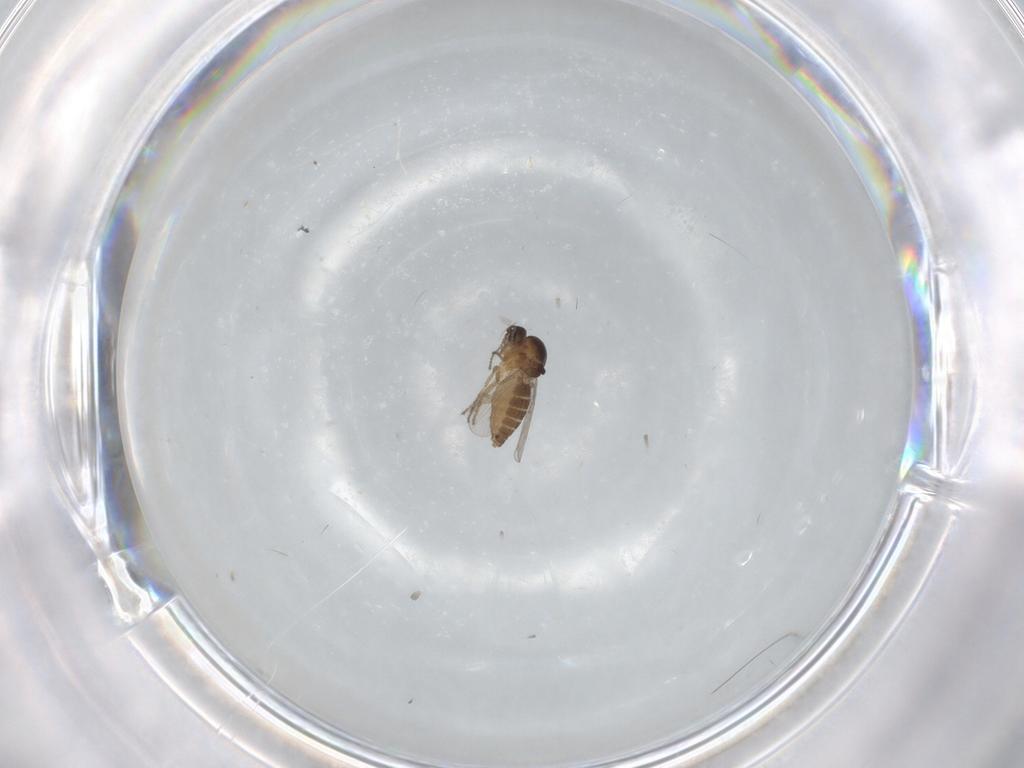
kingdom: Animalia
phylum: Arthropoda
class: Insecta
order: Diptera
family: Ceratopogonidae
